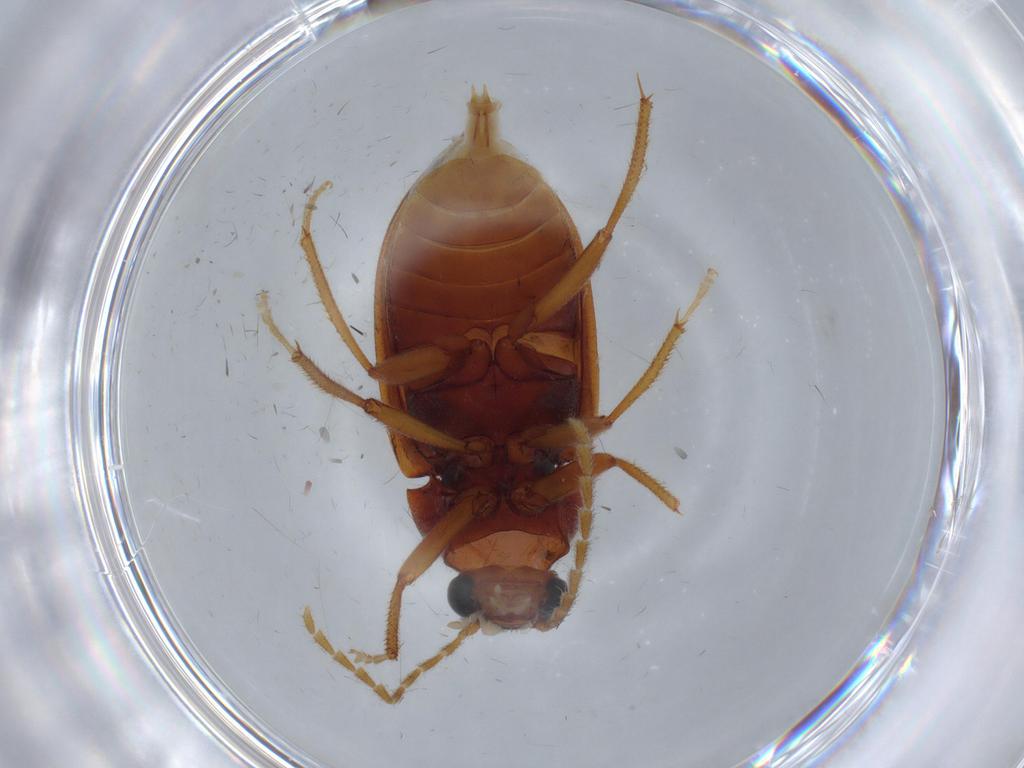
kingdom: Animalia
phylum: Arthropoda
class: Insecta
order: Coleoptera
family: Ptilodactylidae
